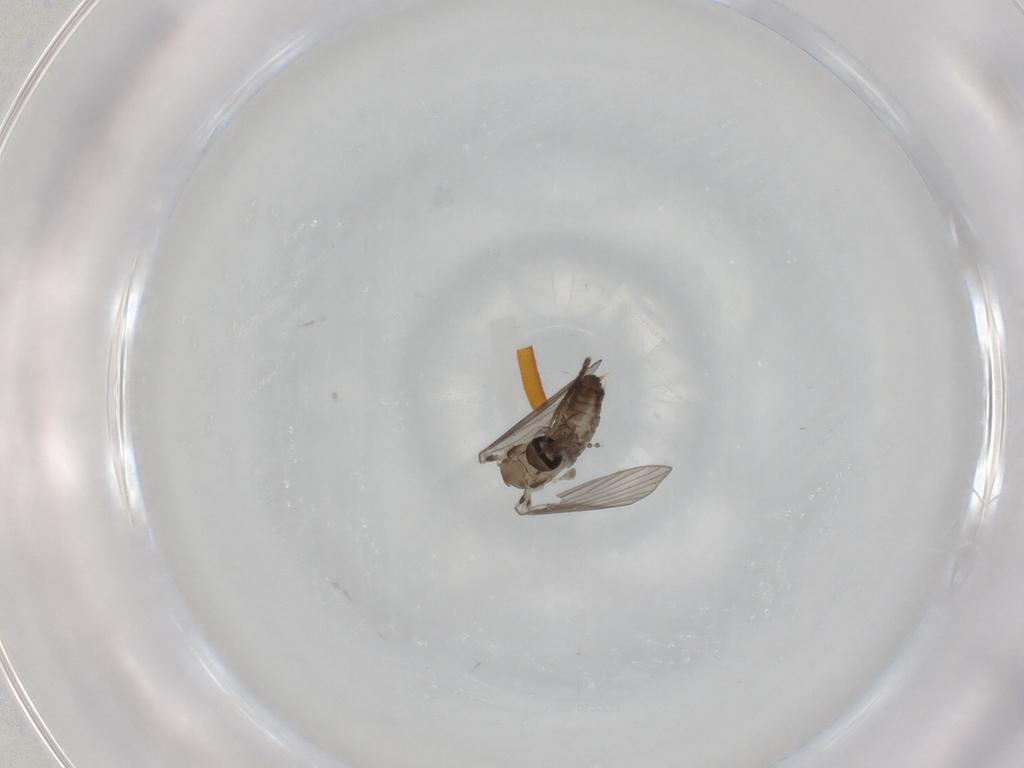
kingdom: Animalia
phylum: Arthropoda
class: Insecta
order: Diptera
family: Psychodidae
